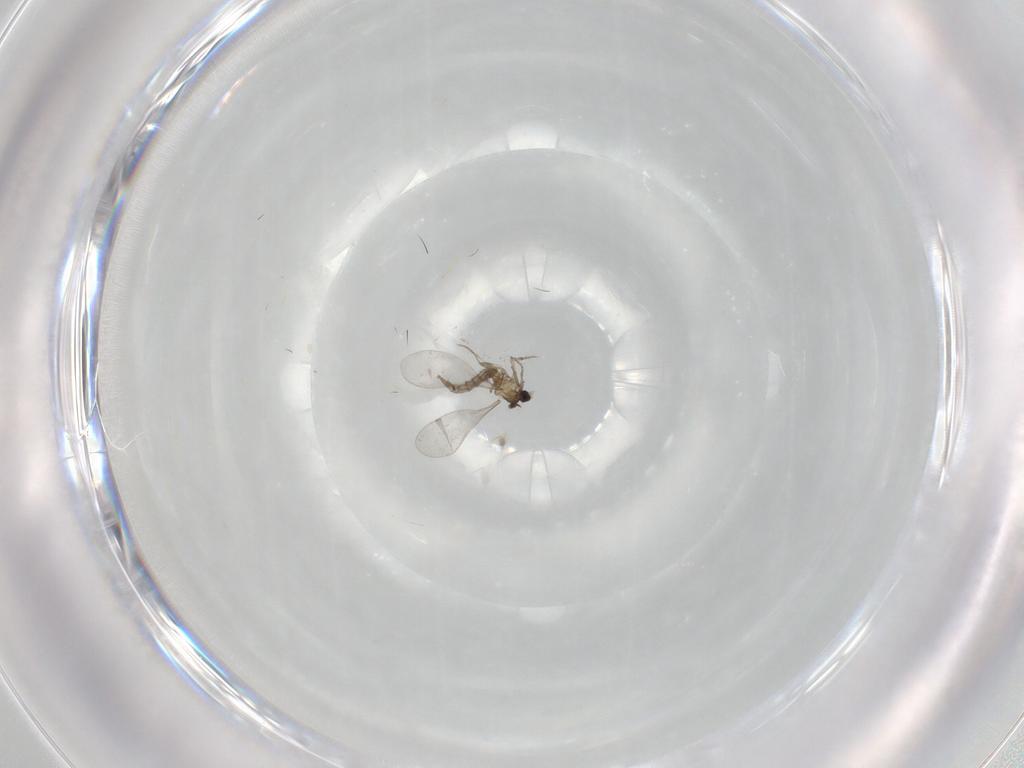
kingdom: Animalia
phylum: Arthropoda
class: Insecta
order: Diptera
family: Cecidomyiidae
